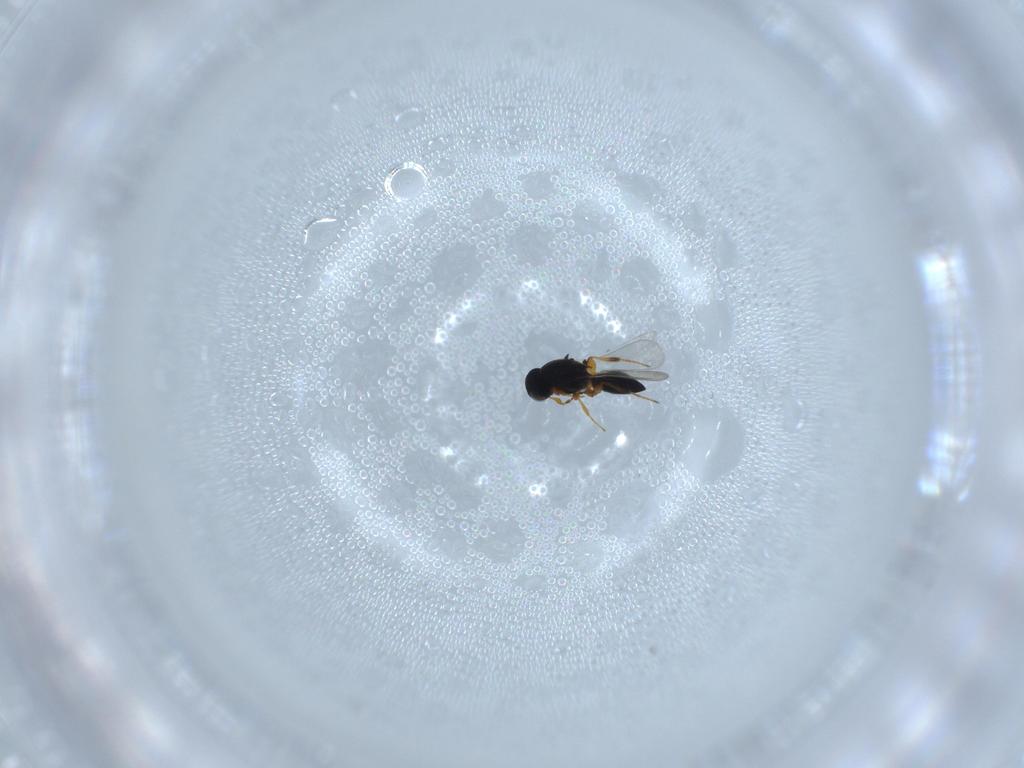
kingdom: Animalia
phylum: Arthropoda
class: Insecta
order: Hymenoptera
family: Platygastridae
